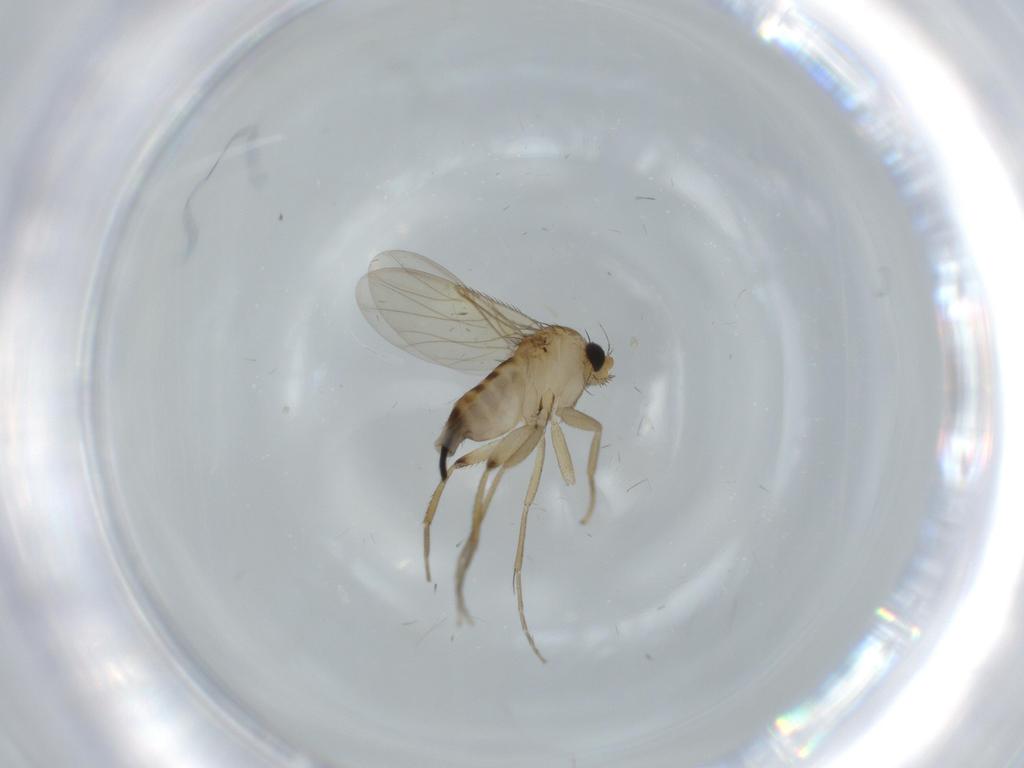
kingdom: Animalia
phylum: Arthropoda
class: Insecta
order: Diptera
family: Phoridae
